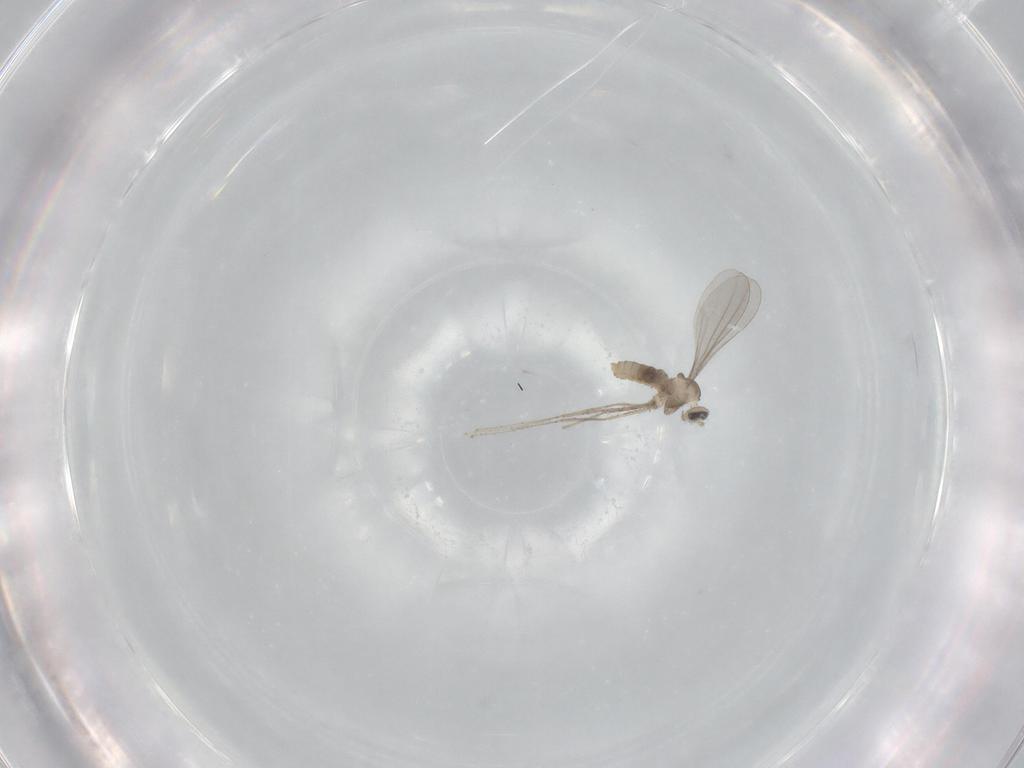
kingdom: Animalia
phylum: Arthropoda
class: Insecta
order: Diptera
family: Cecidomyiidae
